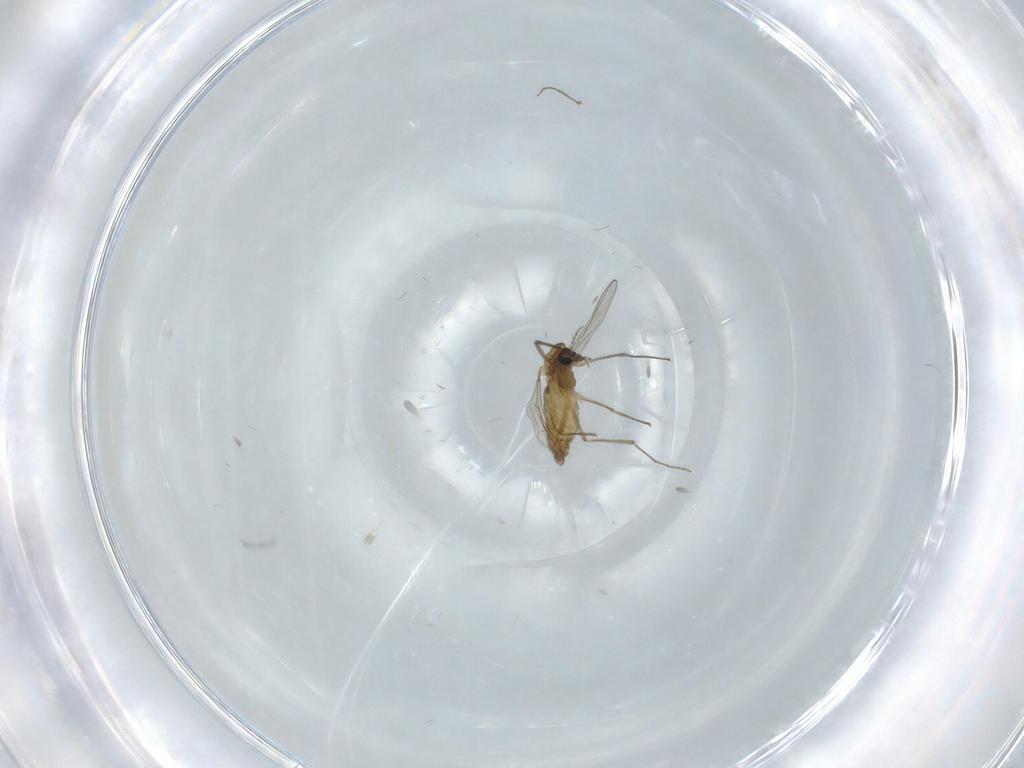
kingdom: Animalia
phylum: Arthropoda
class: Insecta
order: Diptera
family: Chironomidae
